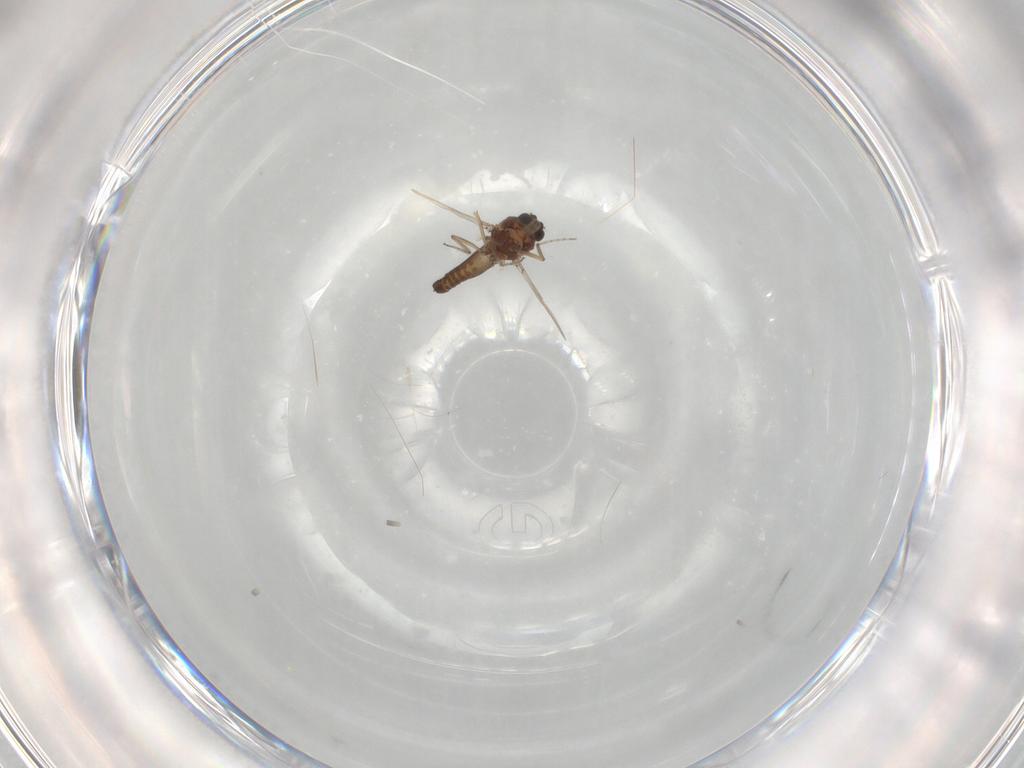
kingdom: Animalia
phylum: Arthropoda
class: Insecta
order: Diptera
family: Ceratopogonidae
